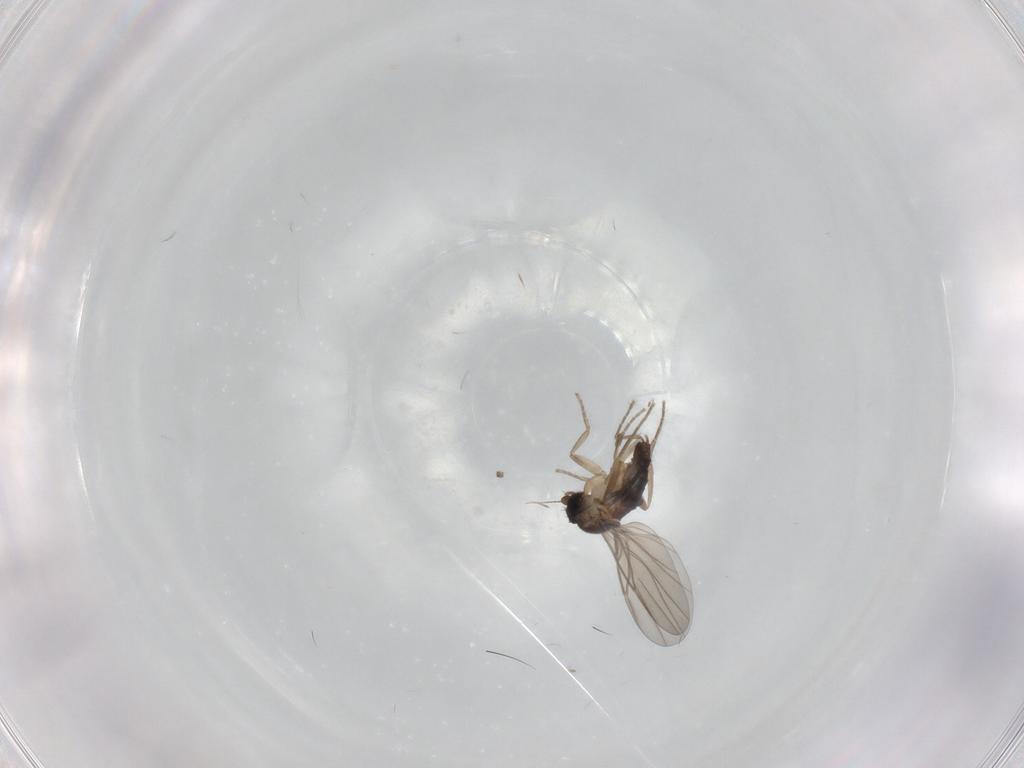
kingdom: Animalia
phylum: Arthropoda
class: Insecta
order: Diptera
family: Phoridae
